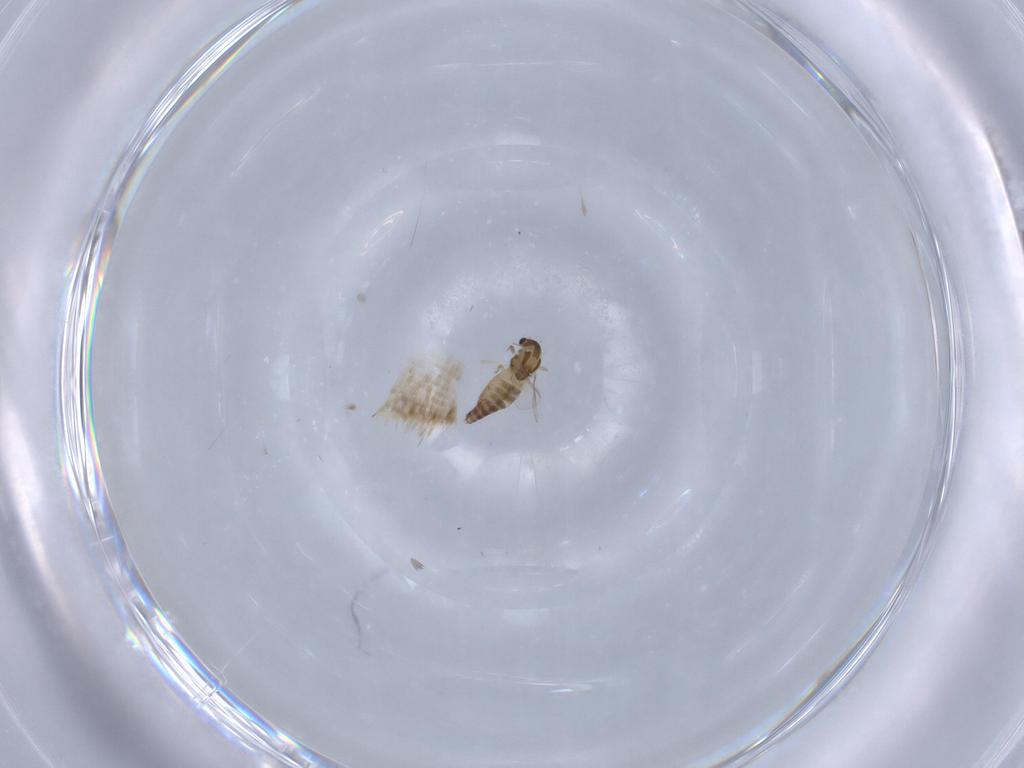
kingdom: Animalia
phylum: Arthropoda
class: Insecta
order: Diptera
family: Chironomidae
